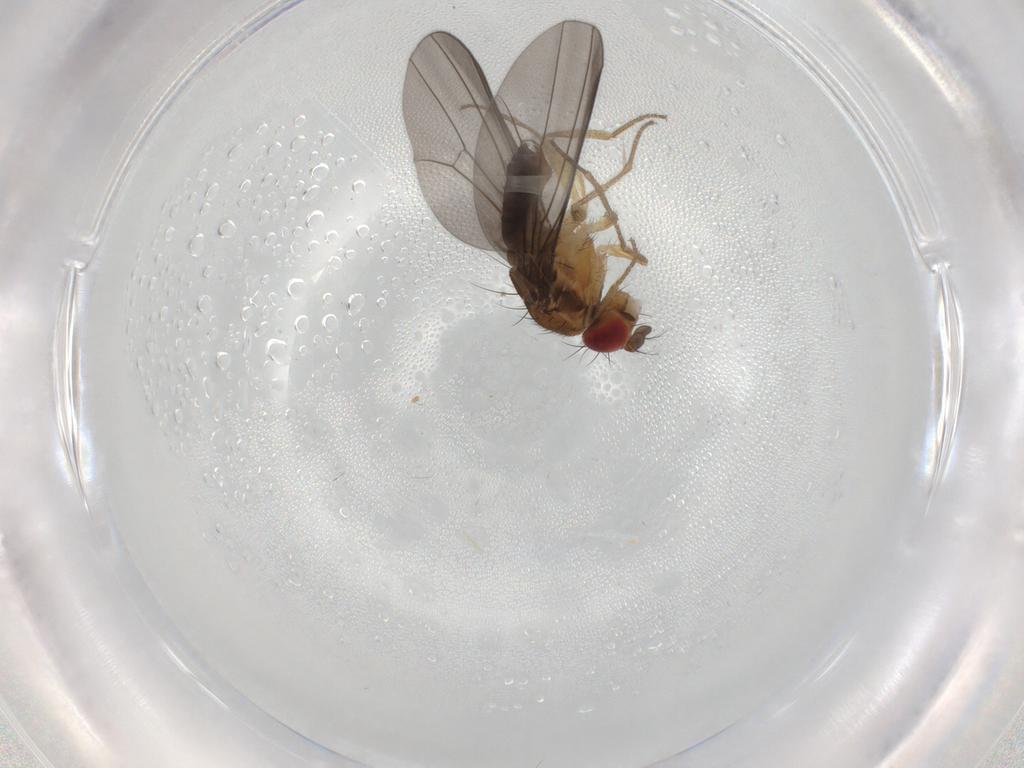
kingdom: Animalia
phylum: Arthropoda
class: Insecta
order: Diptera
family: Drosophilidae
